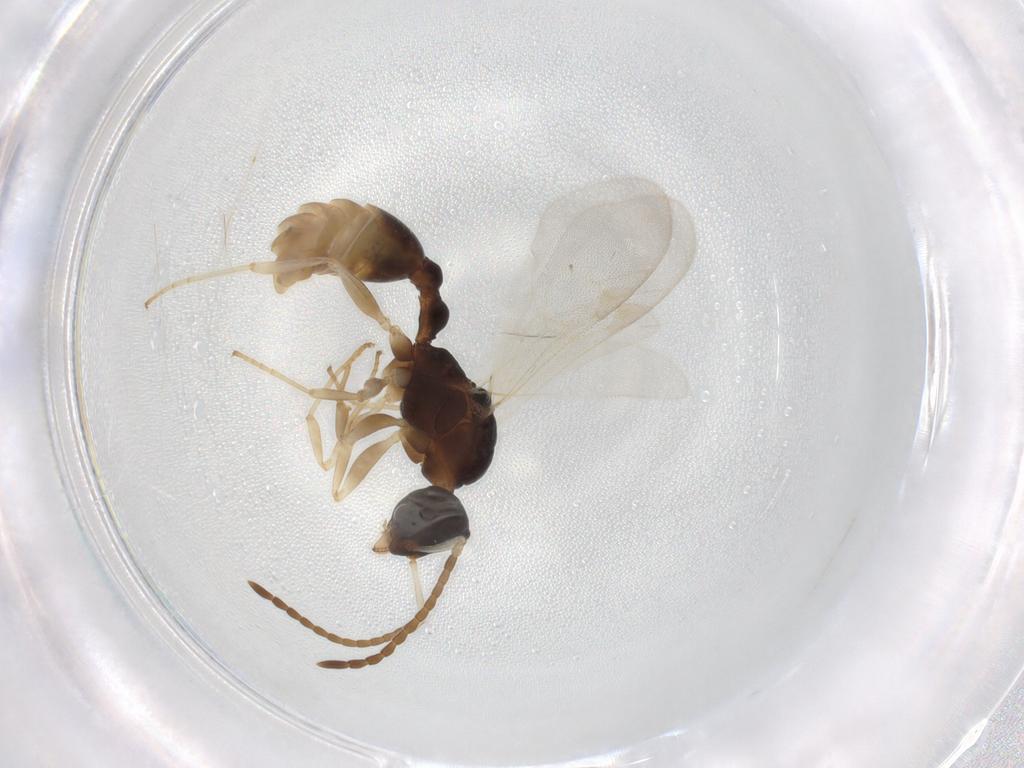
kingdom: Animalia
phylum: Arthropoda
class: Insecta
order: Hymenoptera
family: Formicidae
